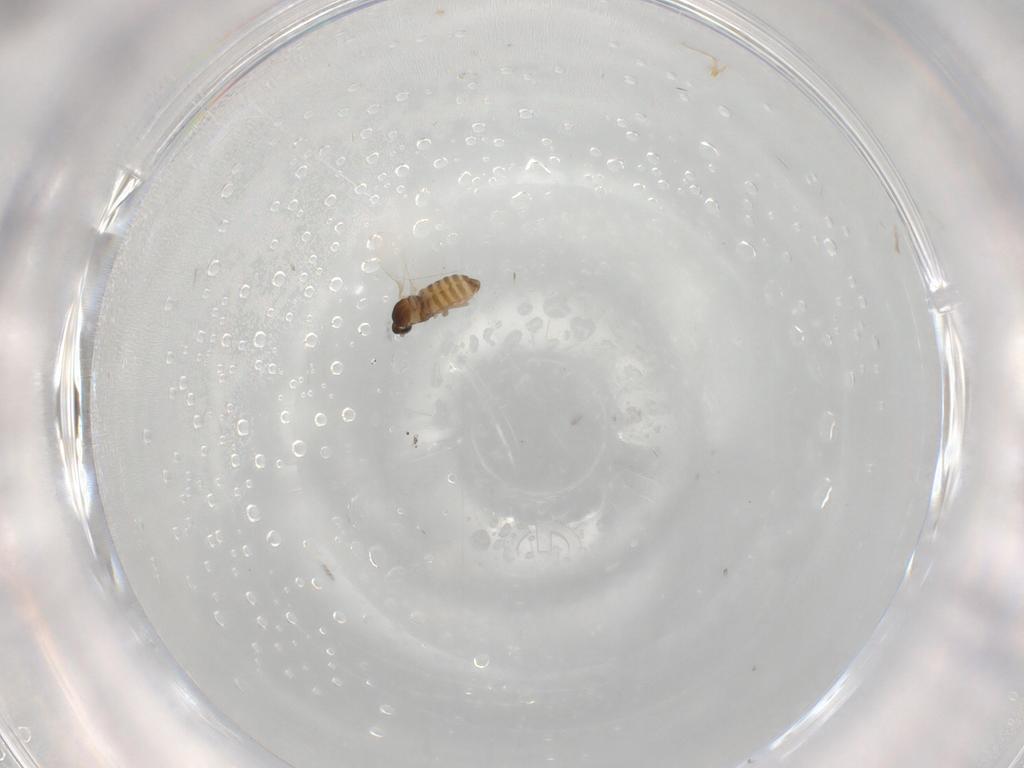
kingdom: Animalia
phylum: Arthropoda
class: Insecta
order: Diptera
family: Cecidomyiidae
